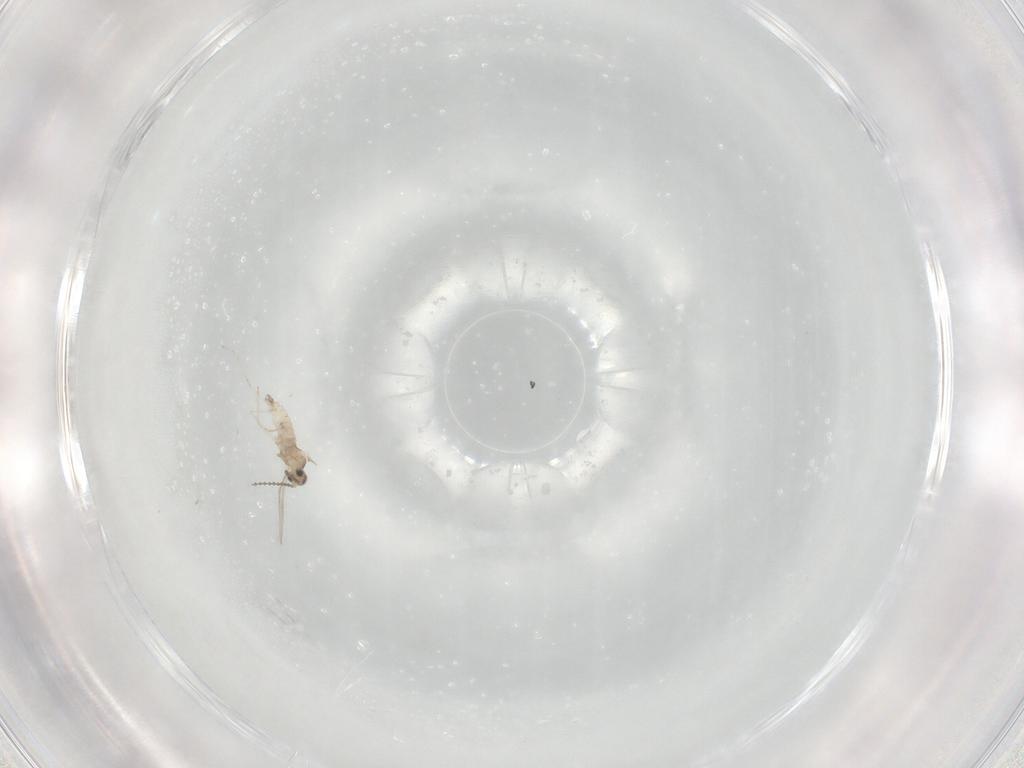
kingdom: Animalia
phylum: Arthropoda
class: Insecta
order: Diptera
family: Cecidomyiidae
